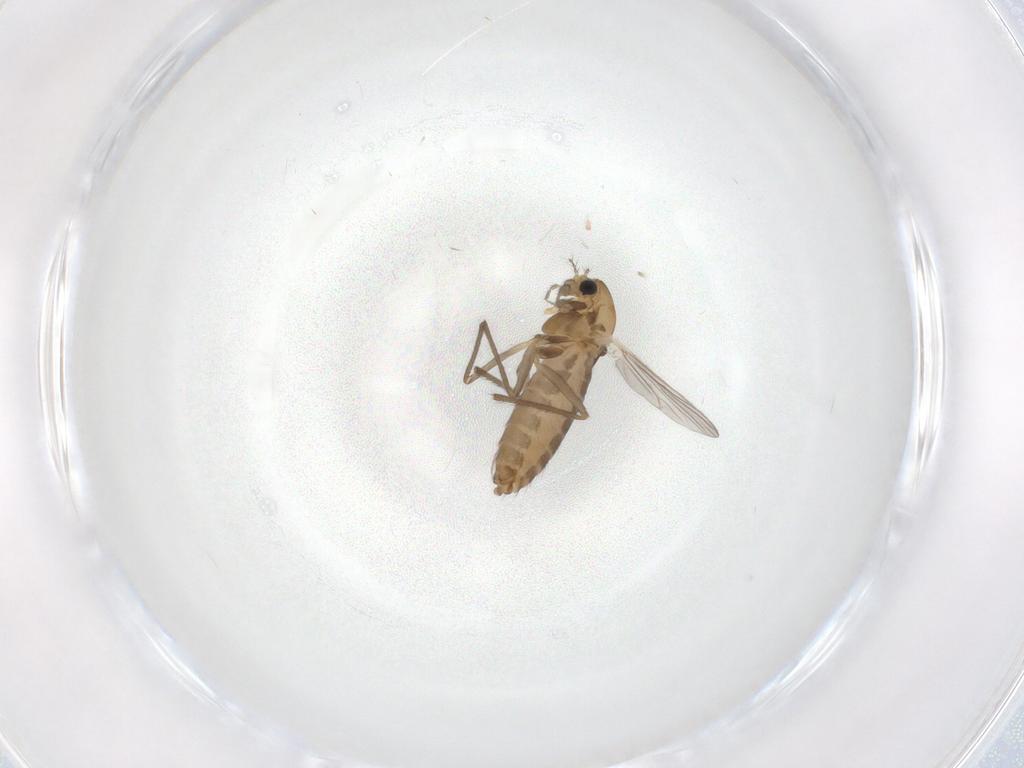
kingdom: Animalia
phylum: Arthropoda
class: Insecta
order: Diptera
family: Chironomidae
